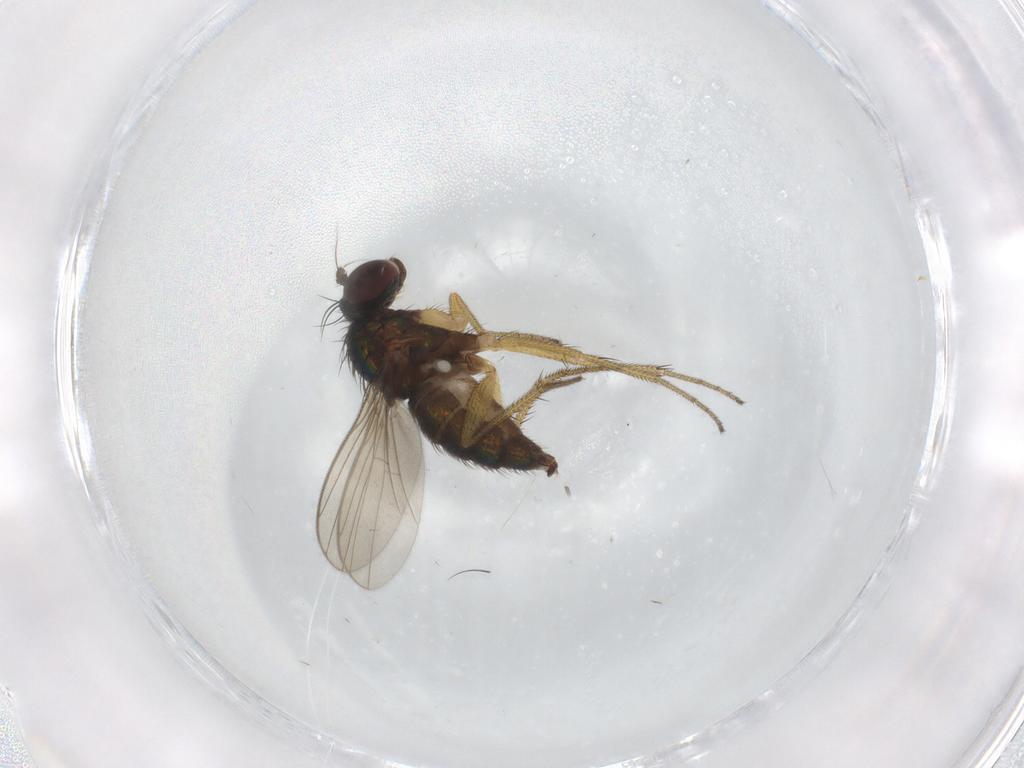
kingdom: Animalia
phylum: Arthropoda
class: Insecta
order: Diptera
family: Dolichopodidae
